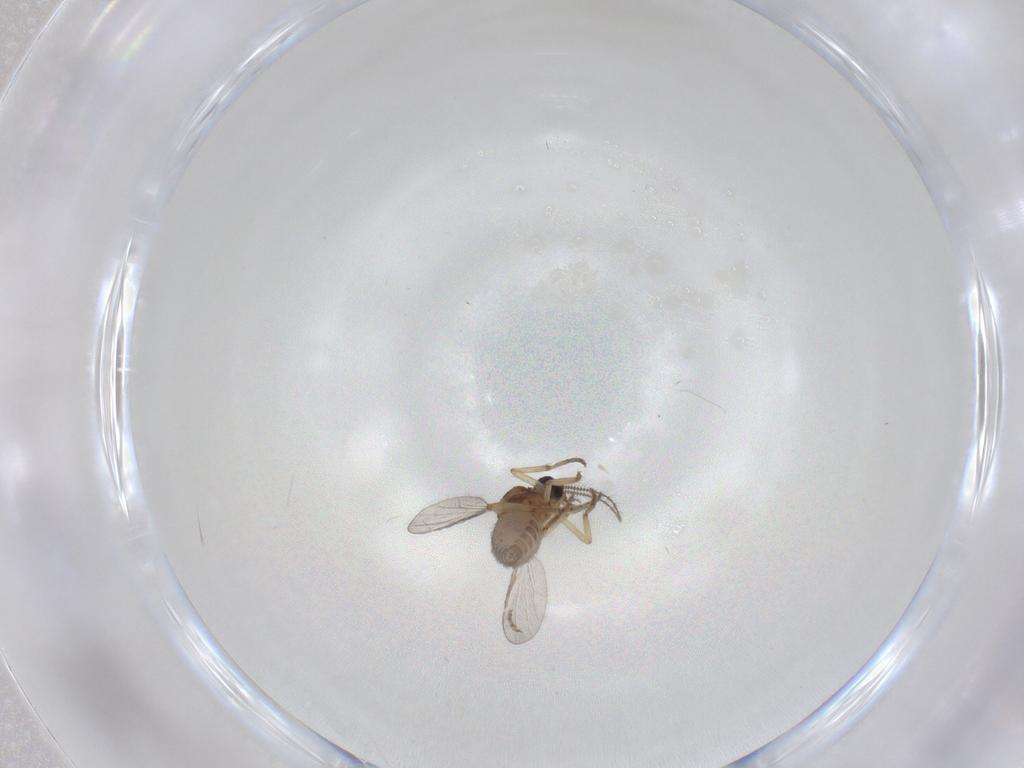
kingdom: Animalia
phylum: Arthropoda
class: Insecta
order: Diptera
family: Ceratopogonidae
